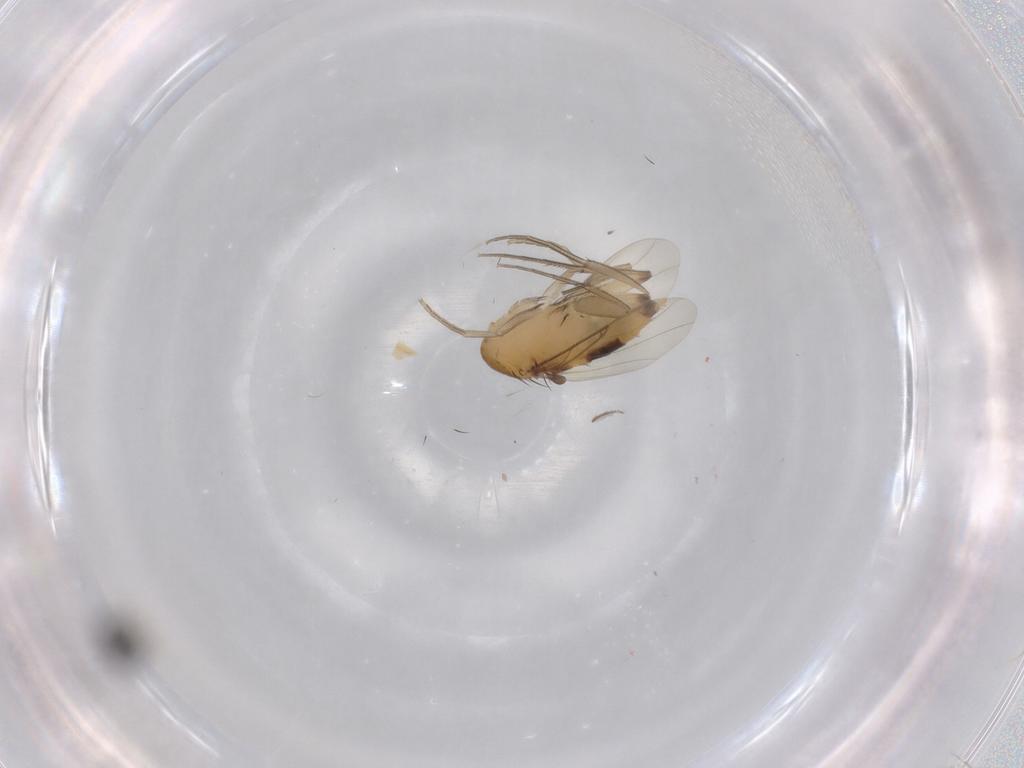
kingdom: Animalia
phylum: Arthropoda
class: Insecta
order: Diptera
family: Phoridae
